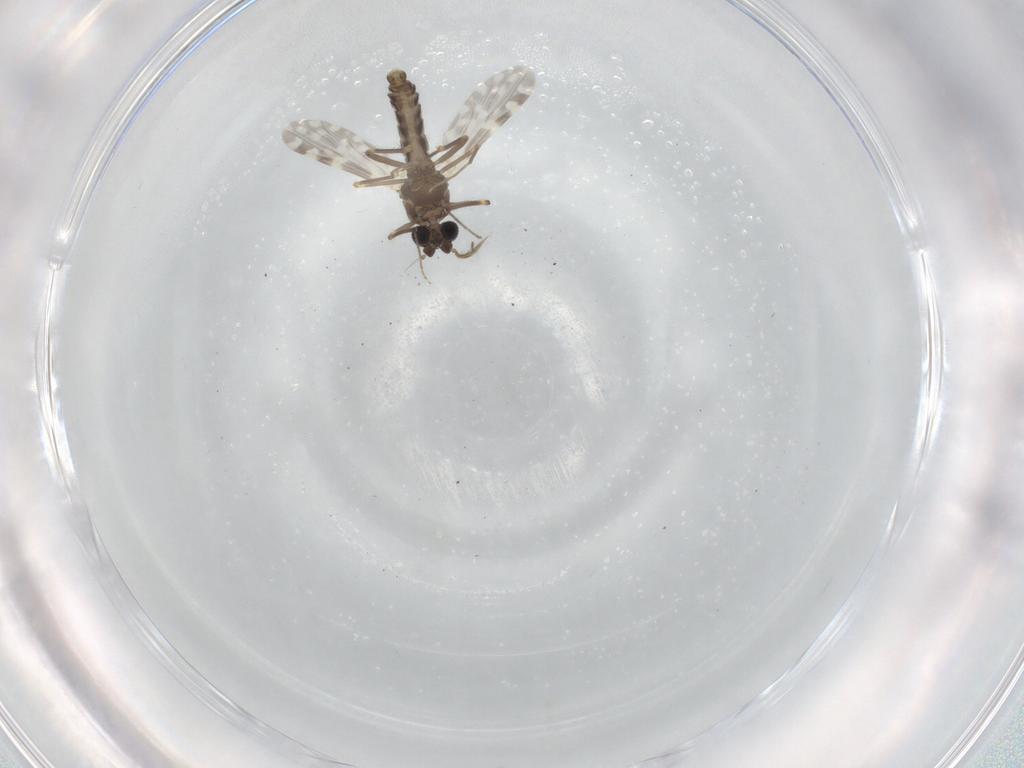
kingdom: Animalia
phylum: Arthropoda
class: Insecta
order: Diptera
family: Ceratopogonidae
